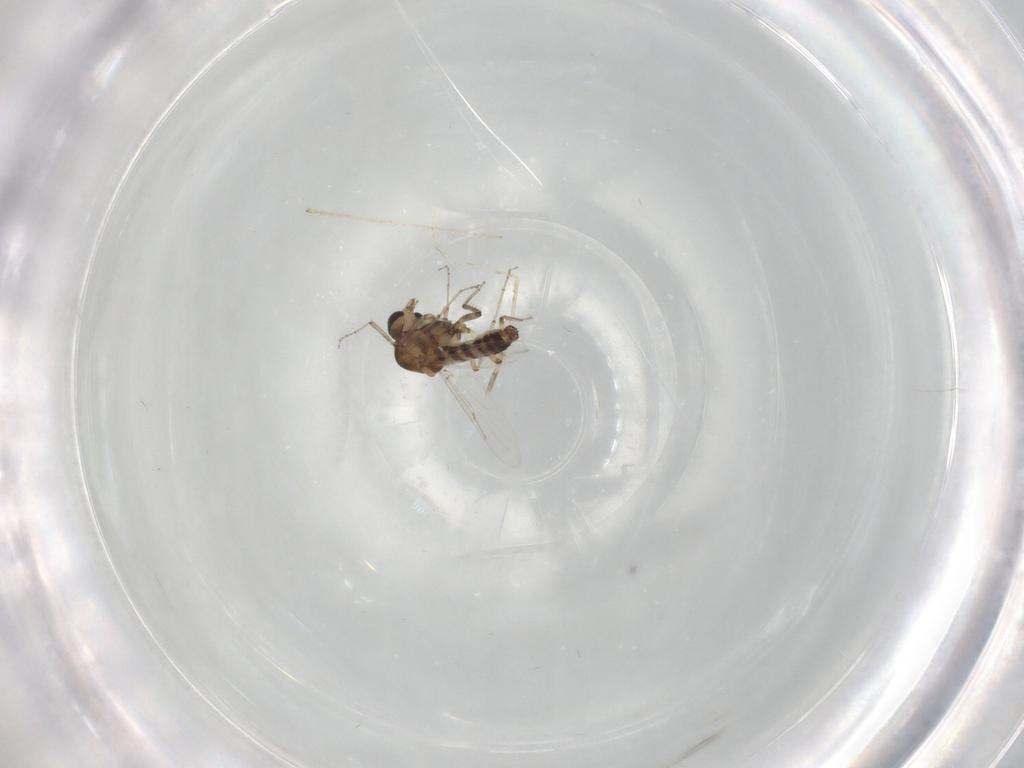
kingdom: Animalia
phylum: Arthropoda
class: Insecta
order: Diptera
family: Ceratopogonidae
